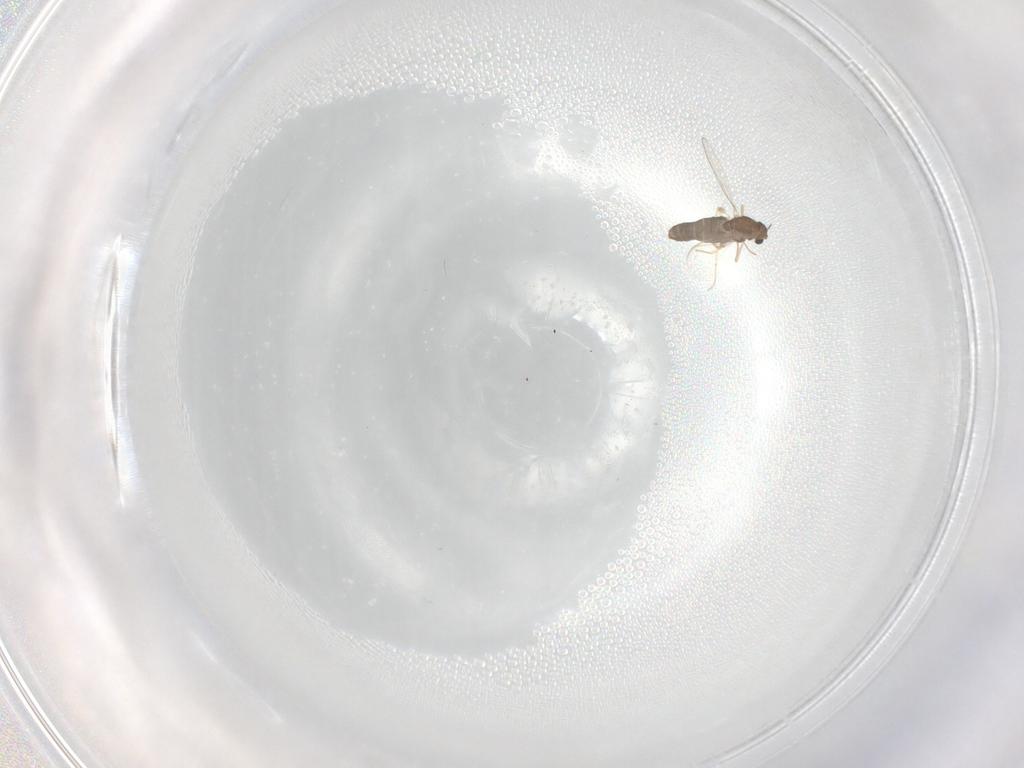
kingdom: Animalia
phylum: Arthropoda
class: Insecta
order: Diptera
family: Chironomidae
